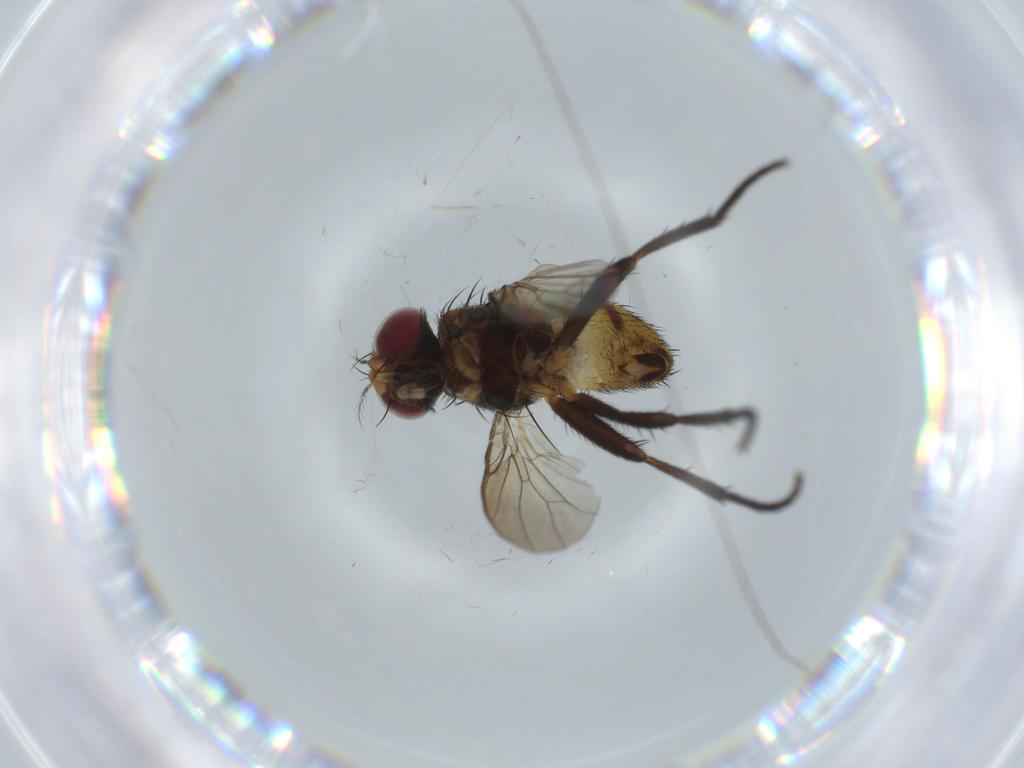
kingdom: Animalia
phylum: Arthropoda
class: Insecta
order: Diptera
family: Anthomyiidae
